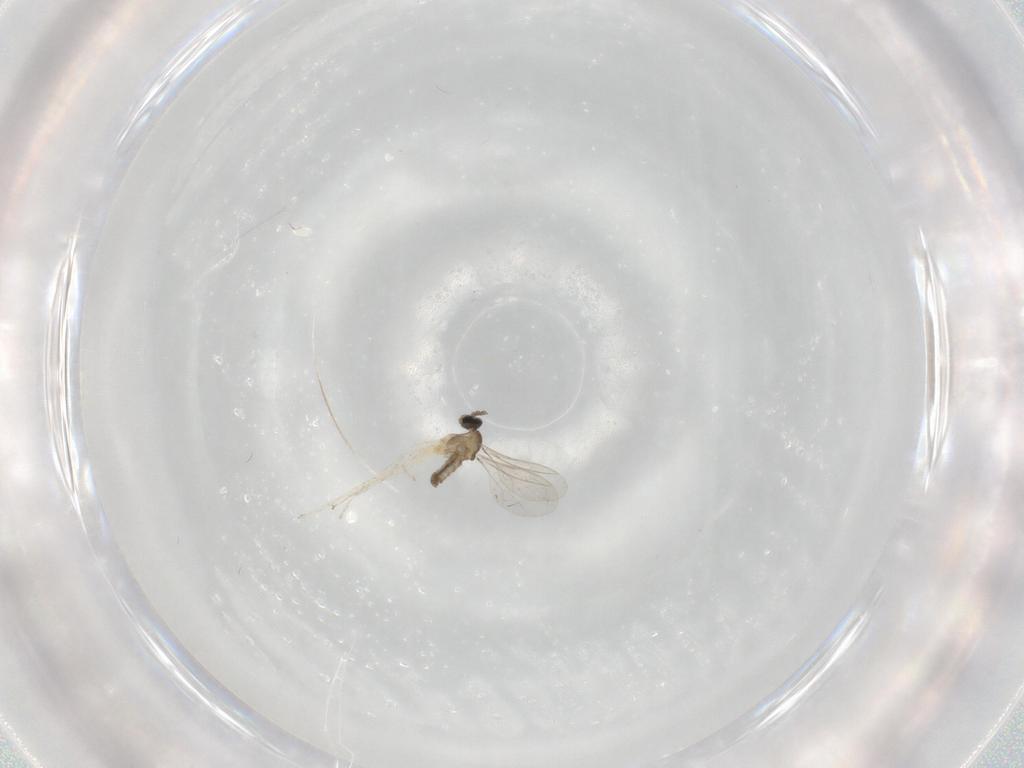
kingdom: Animalia
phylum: Arthropoda
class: Insecta
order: Diptera
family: Cecidomyiidae
